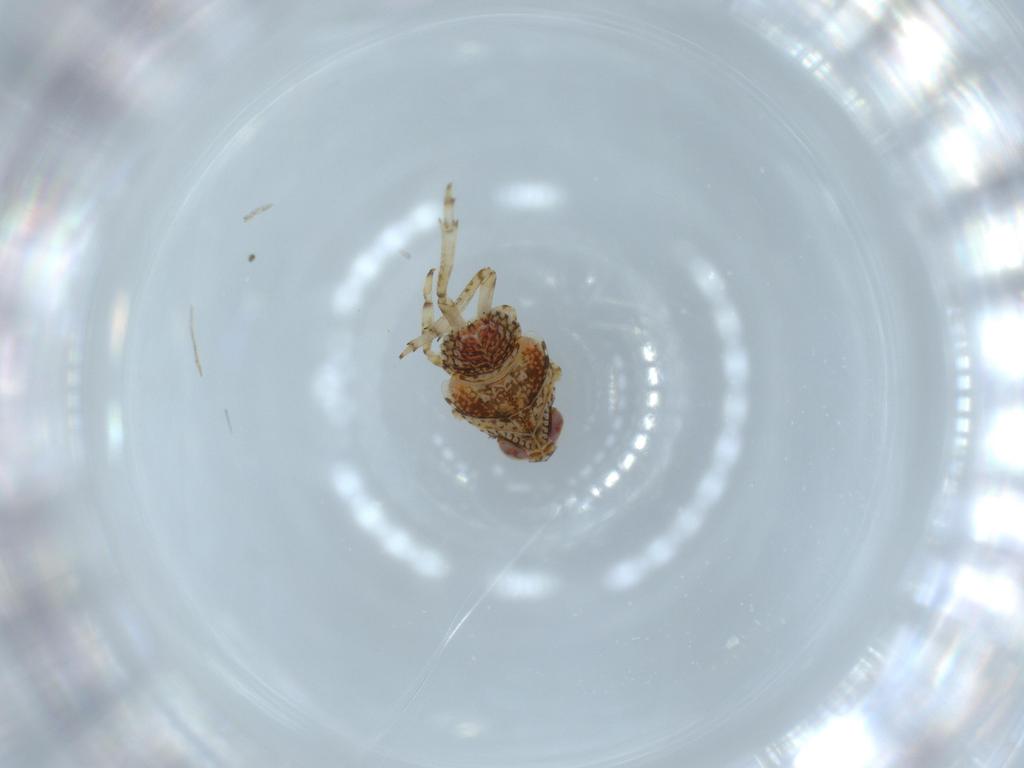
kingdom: Animalia
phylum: Arthropoda
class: Insecta
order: Hemiptera
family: Issidae
